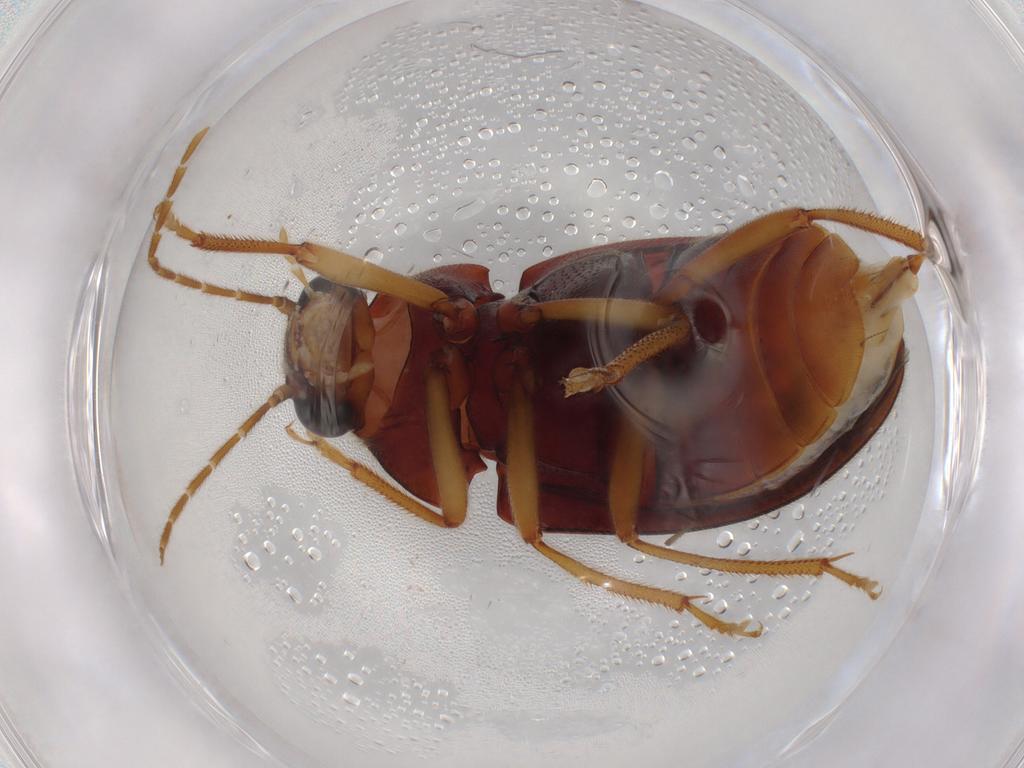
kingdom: Animalia
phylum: Arthropoda
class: Insecta
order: Coleoptera
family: Ptilodactylidae
